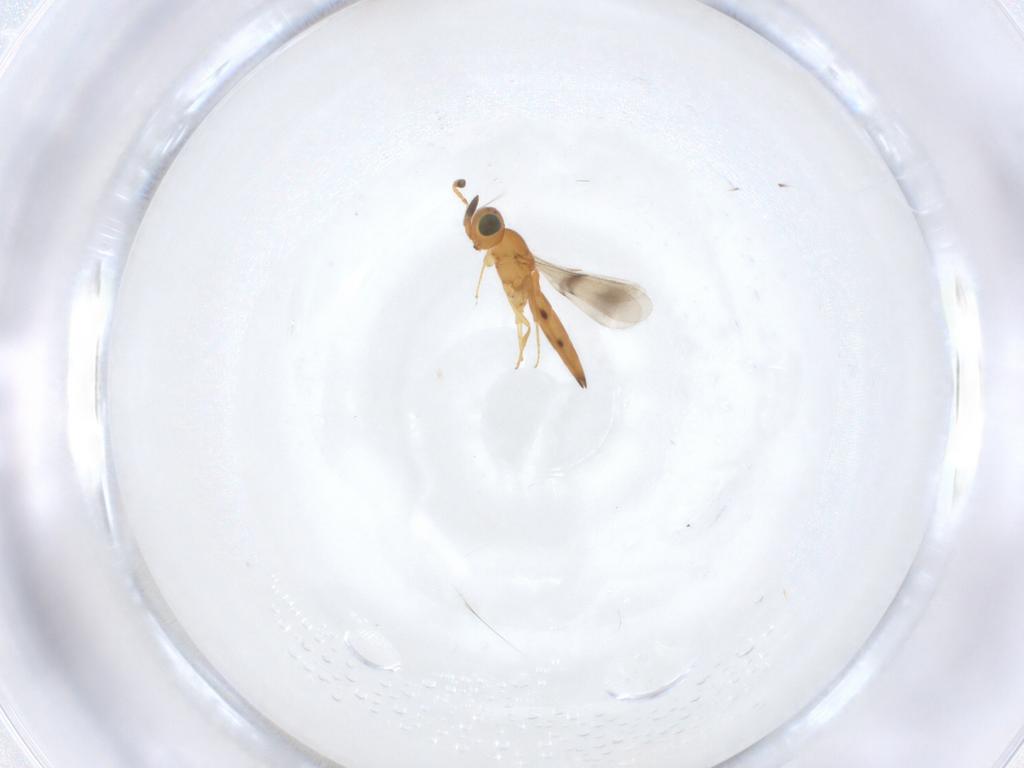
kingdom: Animalia
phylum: Arthropoda
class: Insecta
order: Hymenoptera
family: Scelionidae
